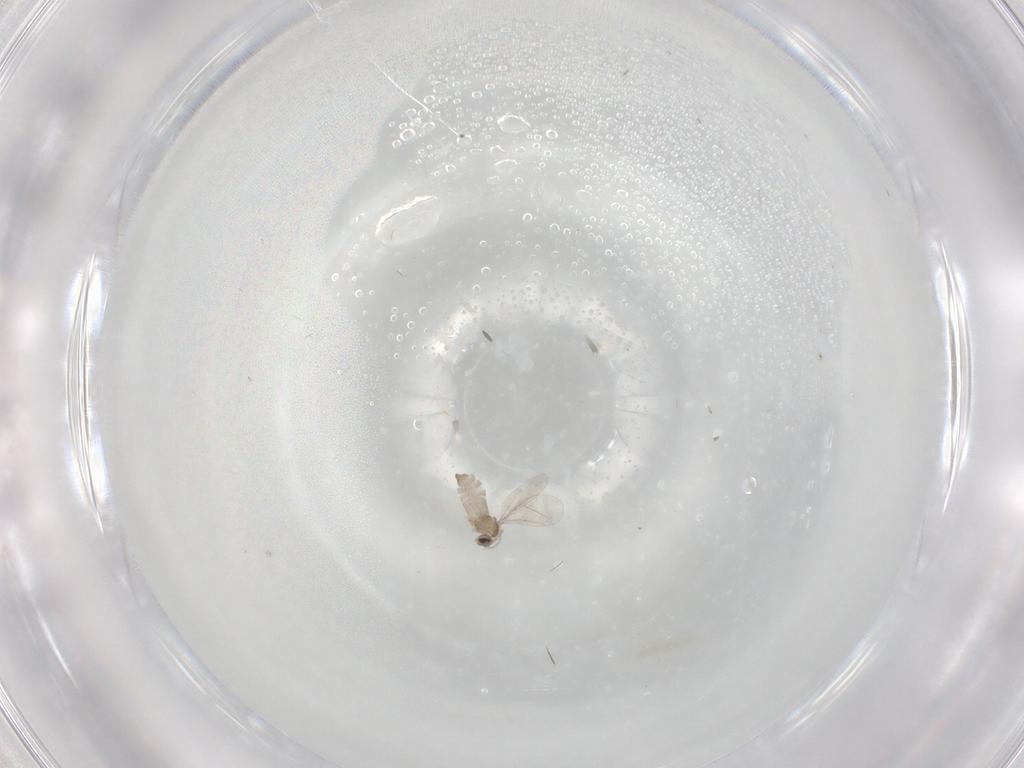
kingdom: Animalia
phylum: Arthropoda
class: Insecta
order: Diptera
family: Cecidomyiidae
